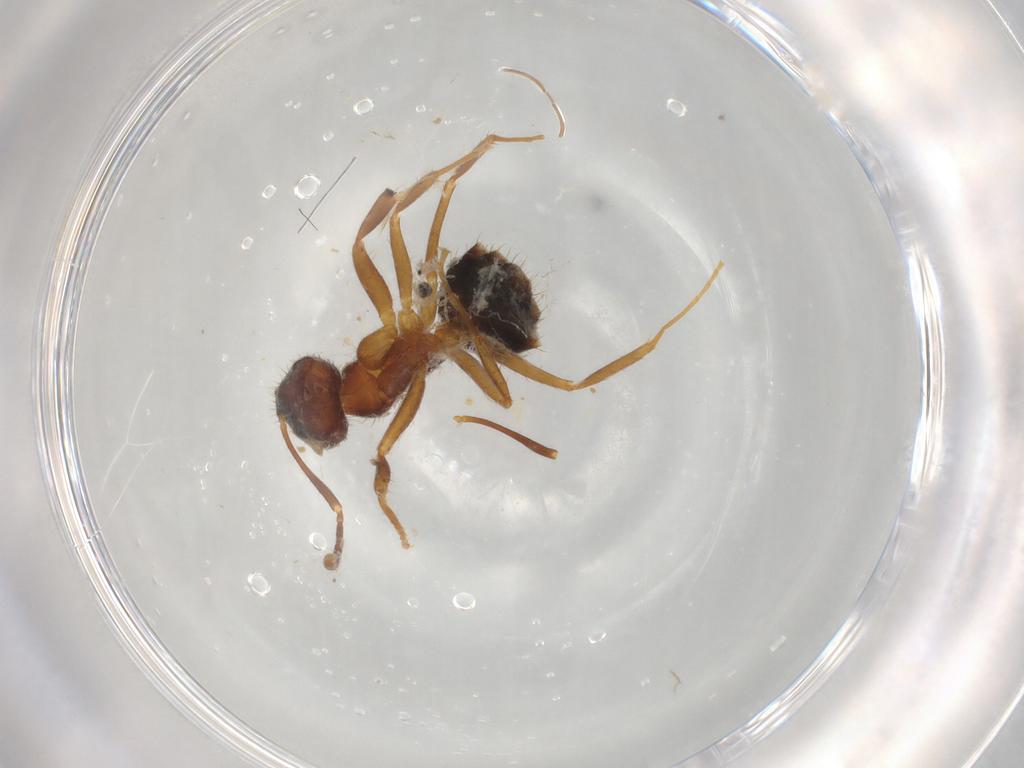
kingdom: Animalia
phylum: Arthropoda
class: Insecta
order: Hymenoptera
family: Formicidae
